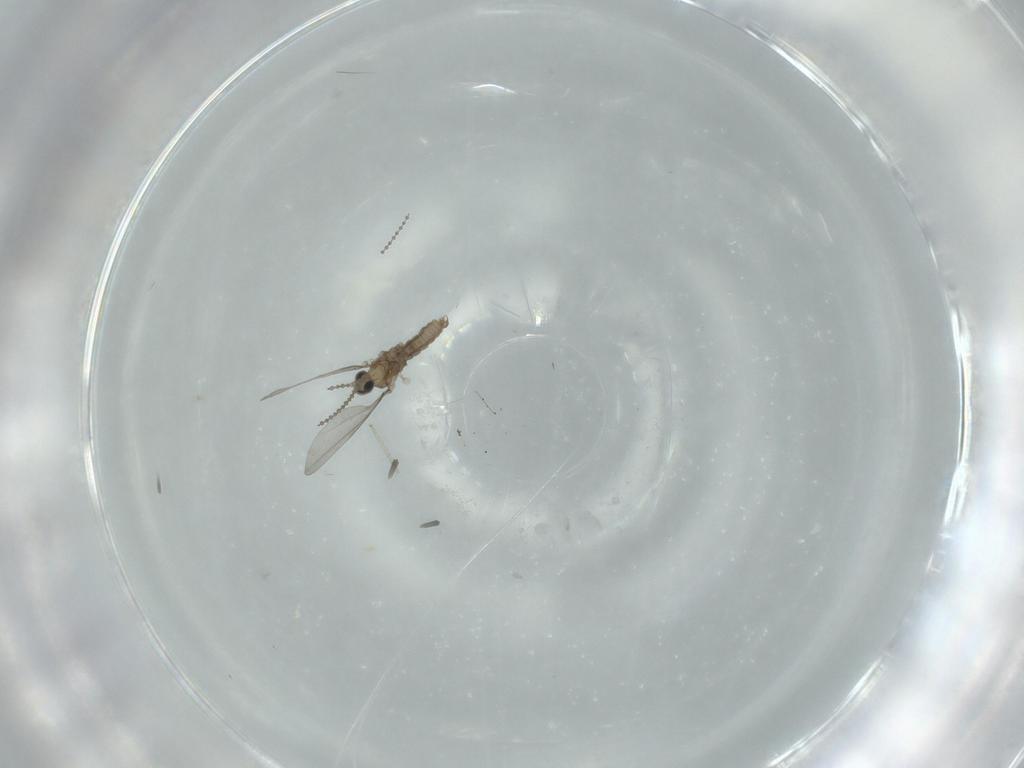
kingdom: Animalia
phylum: Arthropoda
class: Insecta
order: Diptera
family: Cecidomyiidae
